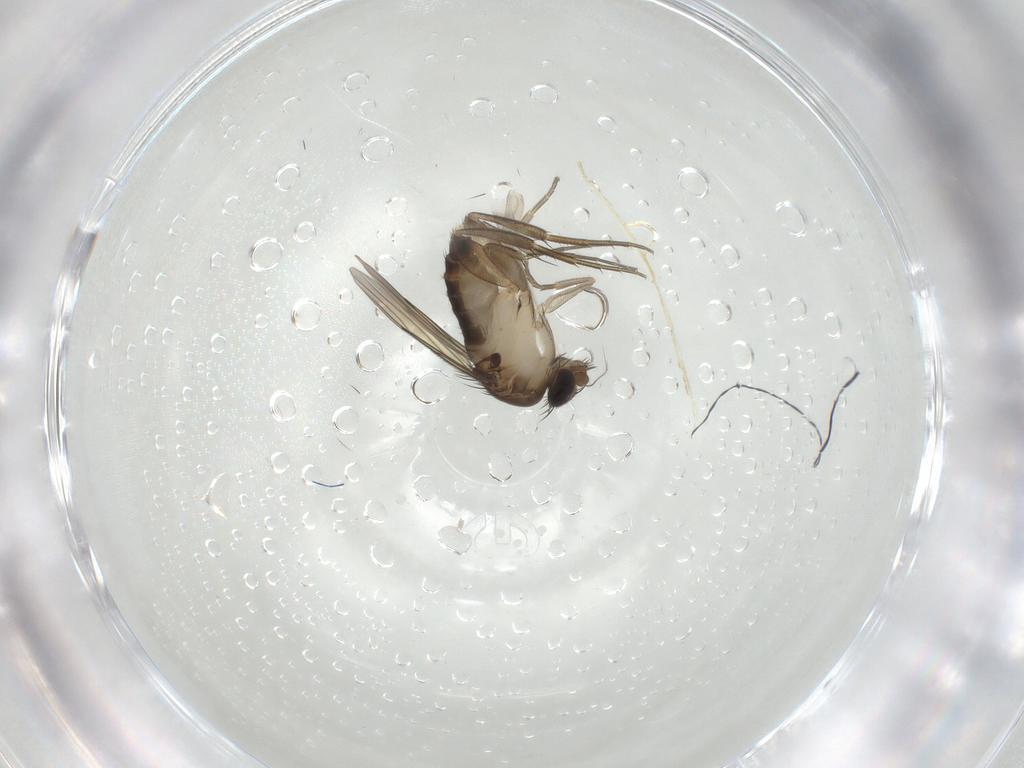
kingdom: Animalia
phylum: Arthropoda
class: Insecta
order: Diptera
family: Phoridae
